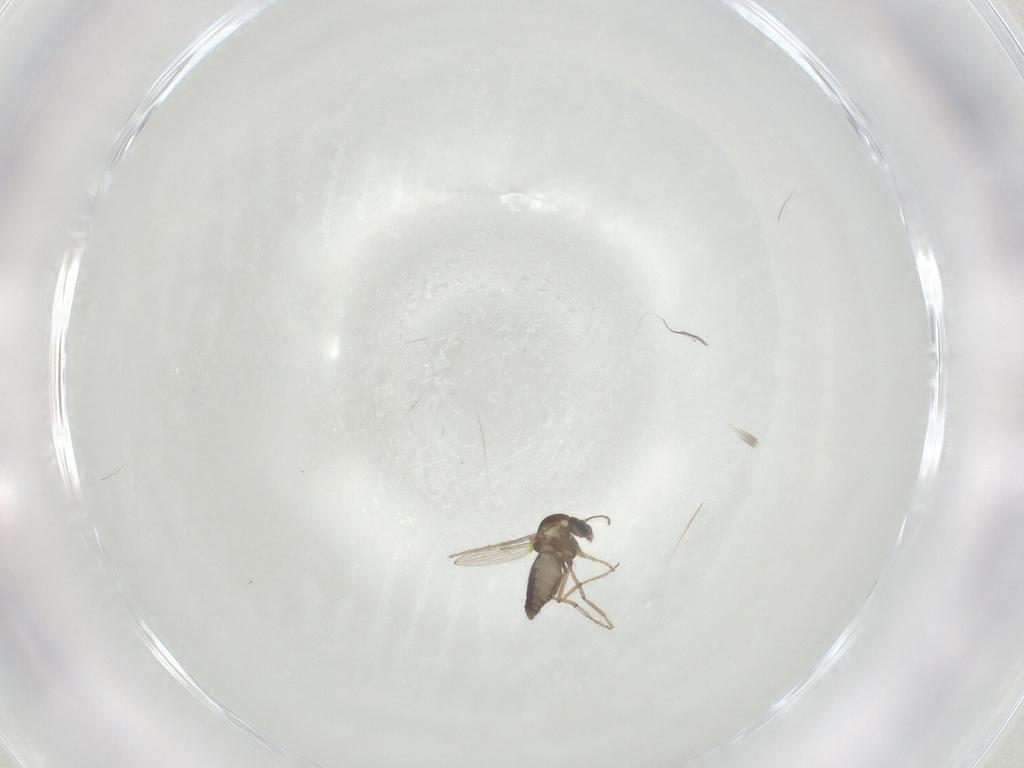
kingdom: Animalia
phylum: Arthropoda
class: Insecta
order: Diptera
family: Ceratopogonidae
